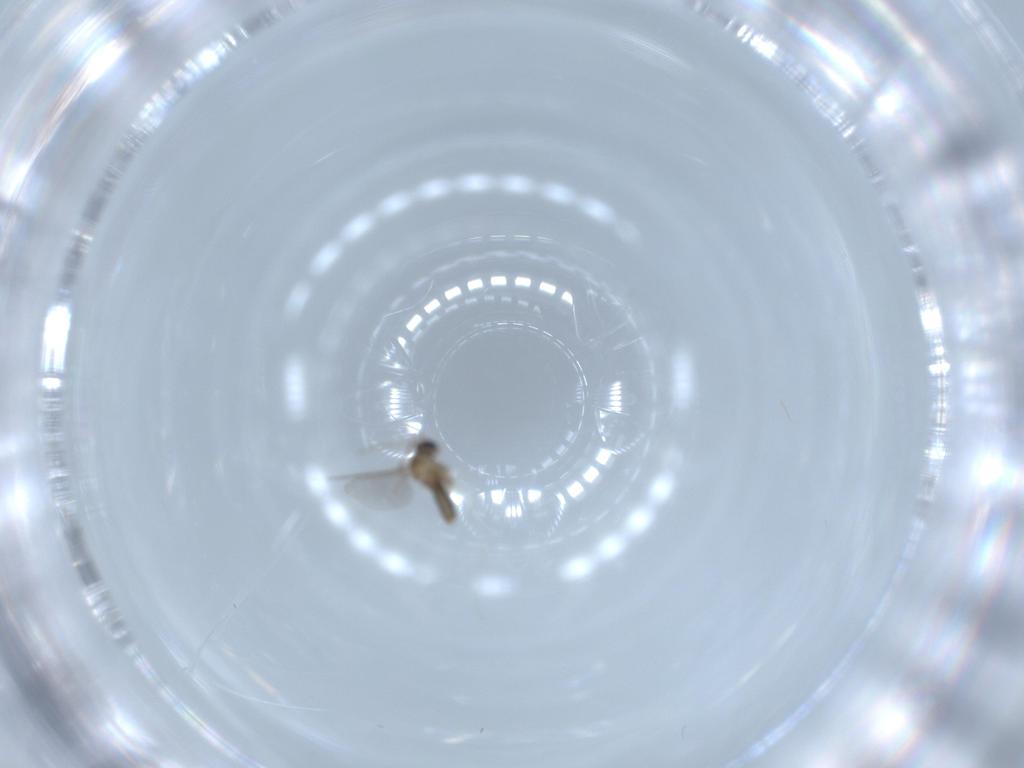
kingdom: Animalia
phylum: Arthropoda
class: Insecta
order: Diptera
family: Cecidomyiidae
